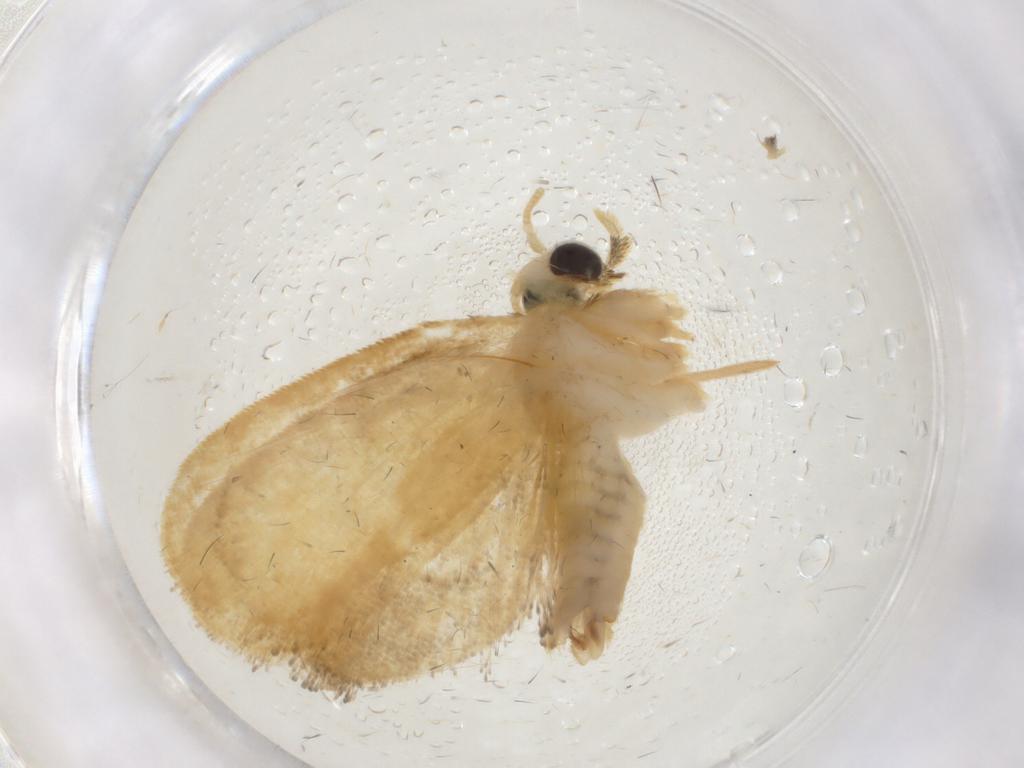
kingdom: Animalia
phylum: Arthropoda
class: Insecta
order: Lepidoptera
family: Psychidae
